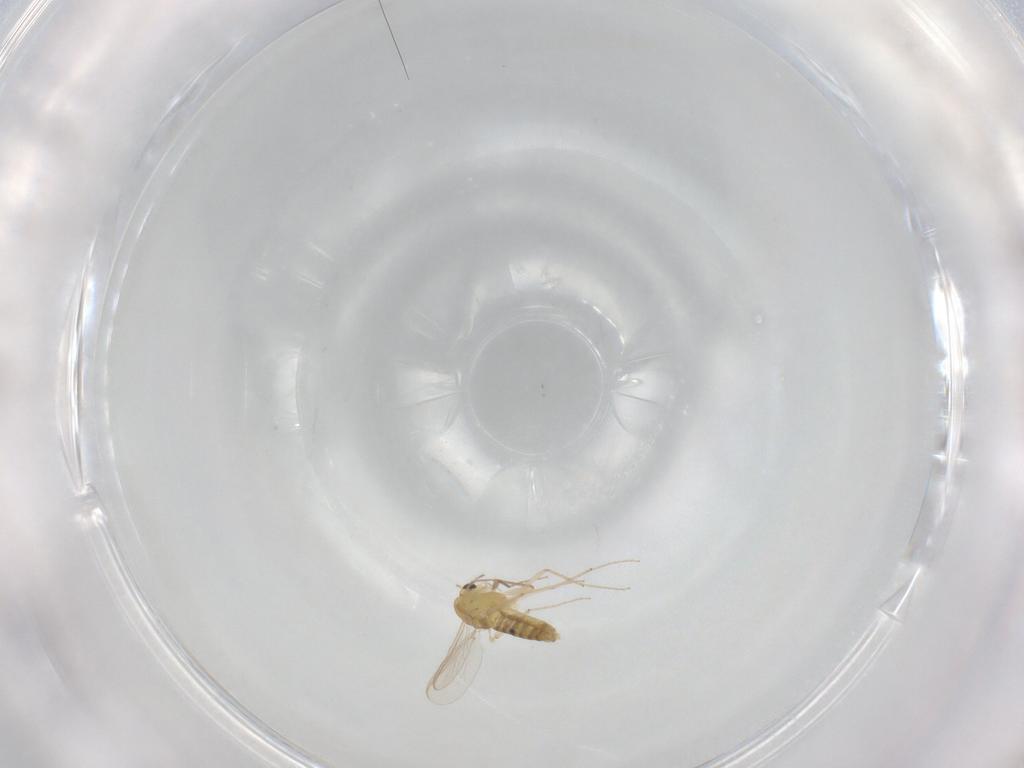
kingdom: Animalia
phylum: Arthropoda
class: Insecta
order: Diptera
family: Chironomidae
